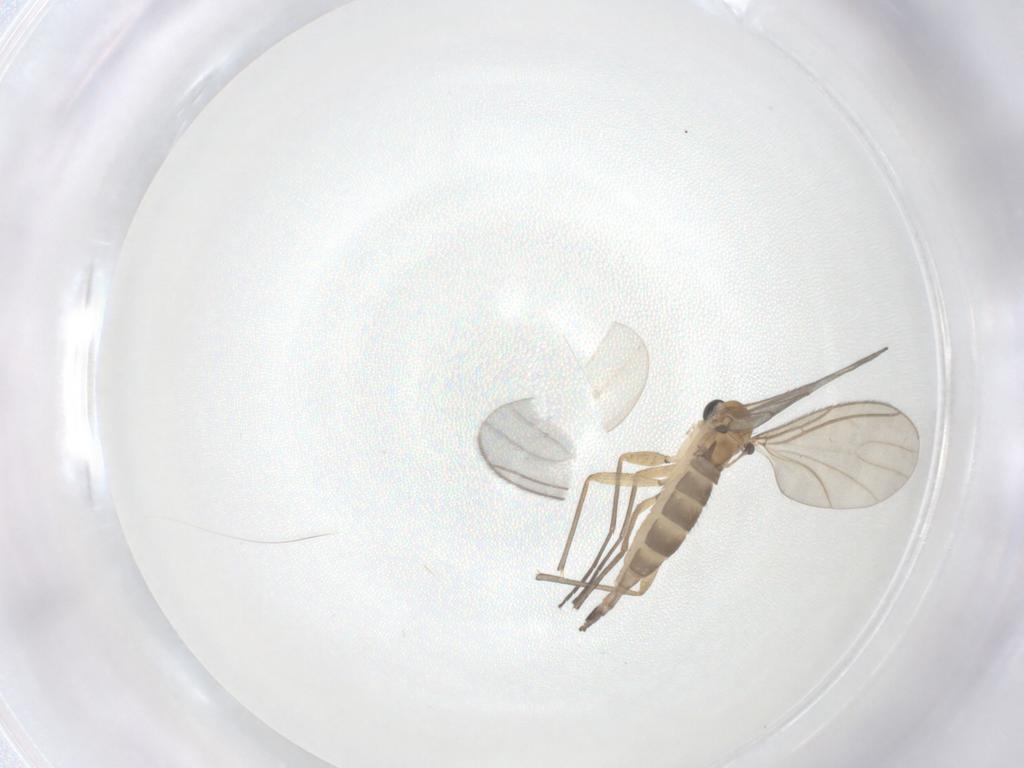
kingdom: Animalia
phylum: Arthropoda
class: Insecta
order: Diptera
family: Sciaridae
